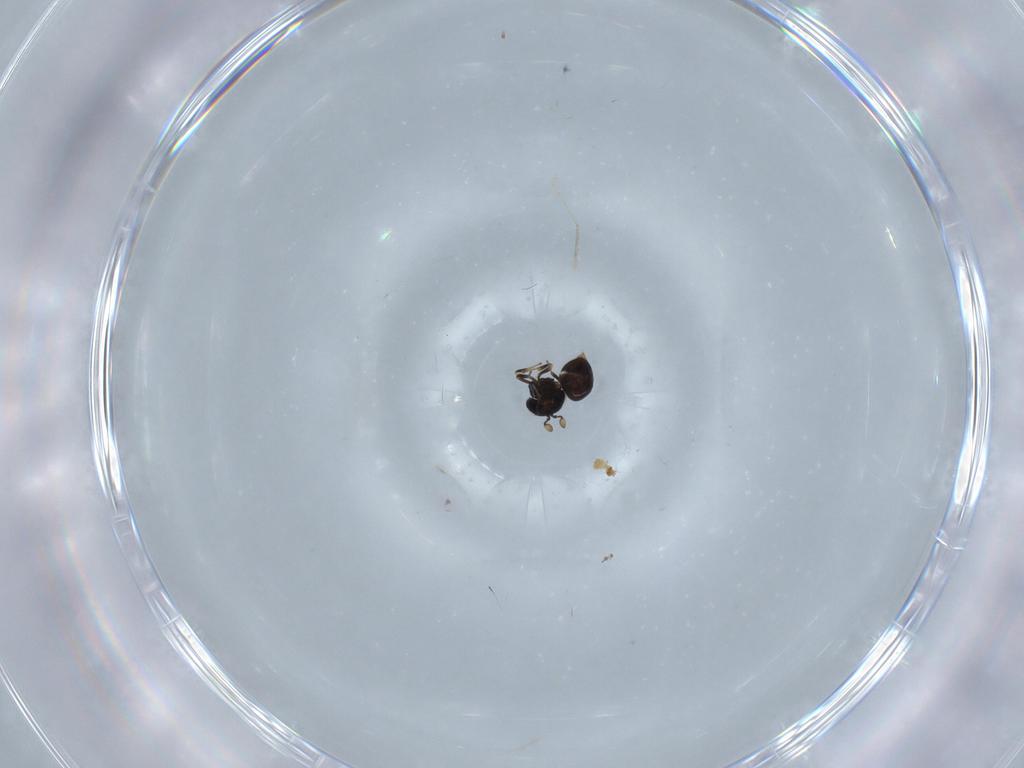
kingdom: Animalia
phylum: Arthropoda
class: Insecta
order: Hymenoptera
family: Scelionidae
